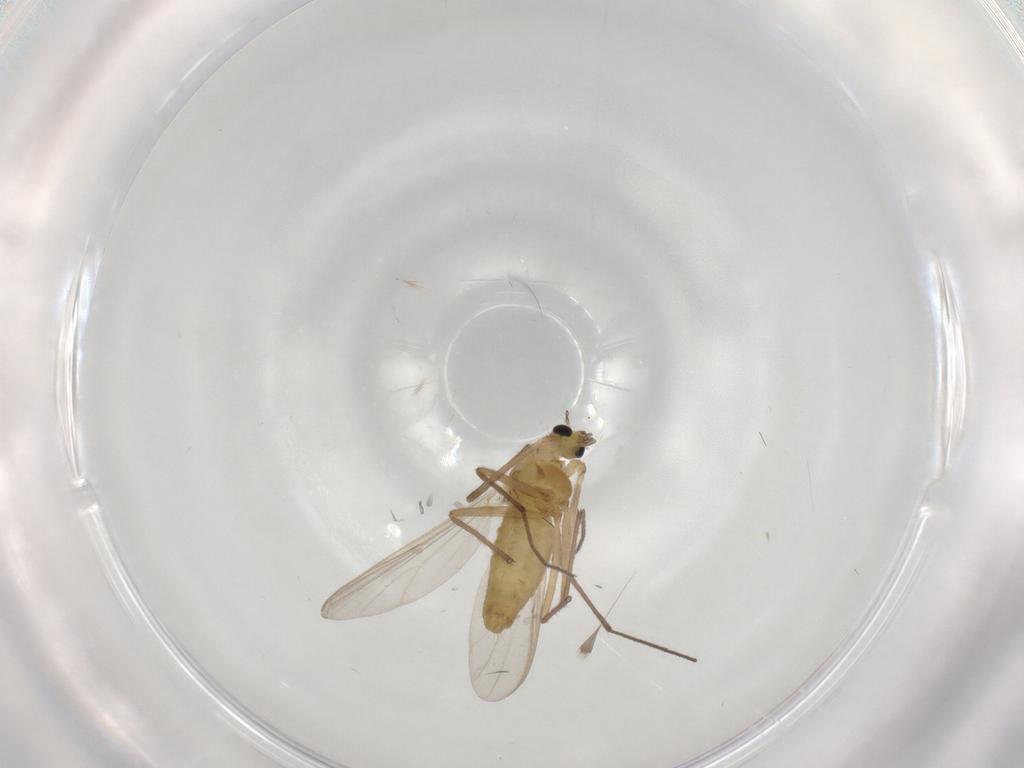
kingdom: Animalia
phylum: Arthropoda
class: Insecta
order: Diptera
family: Chironomidae
